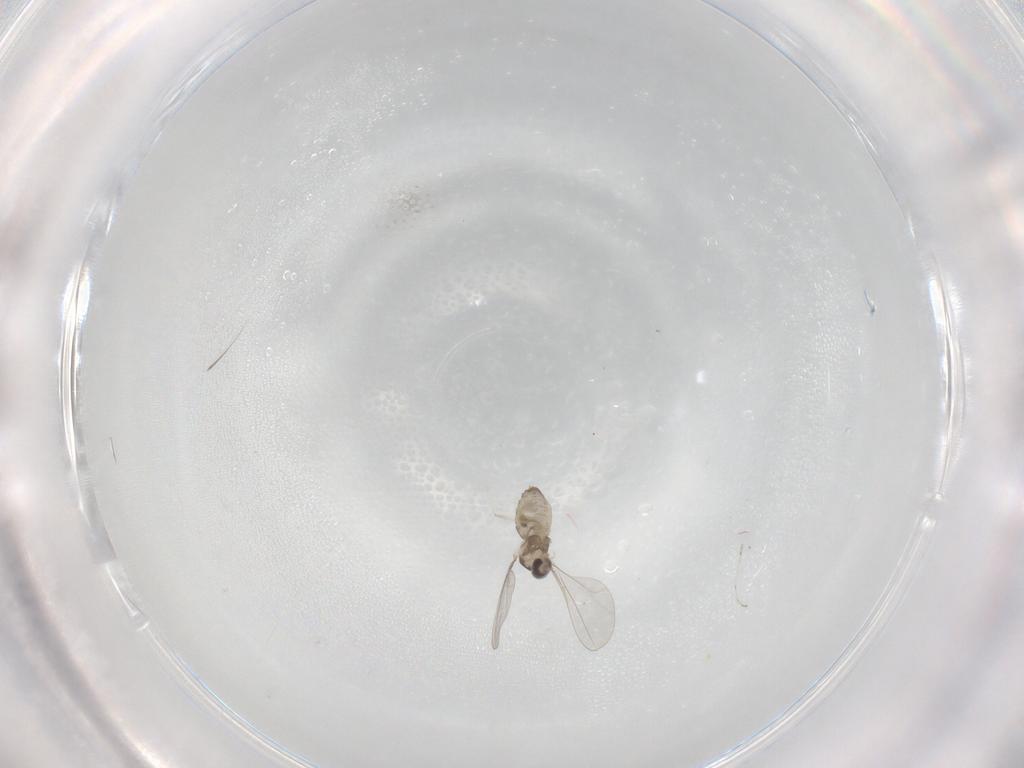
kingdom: Animalia
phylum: Arthropoda
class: Insecta
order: Diptera
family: Cecidomyiidae
